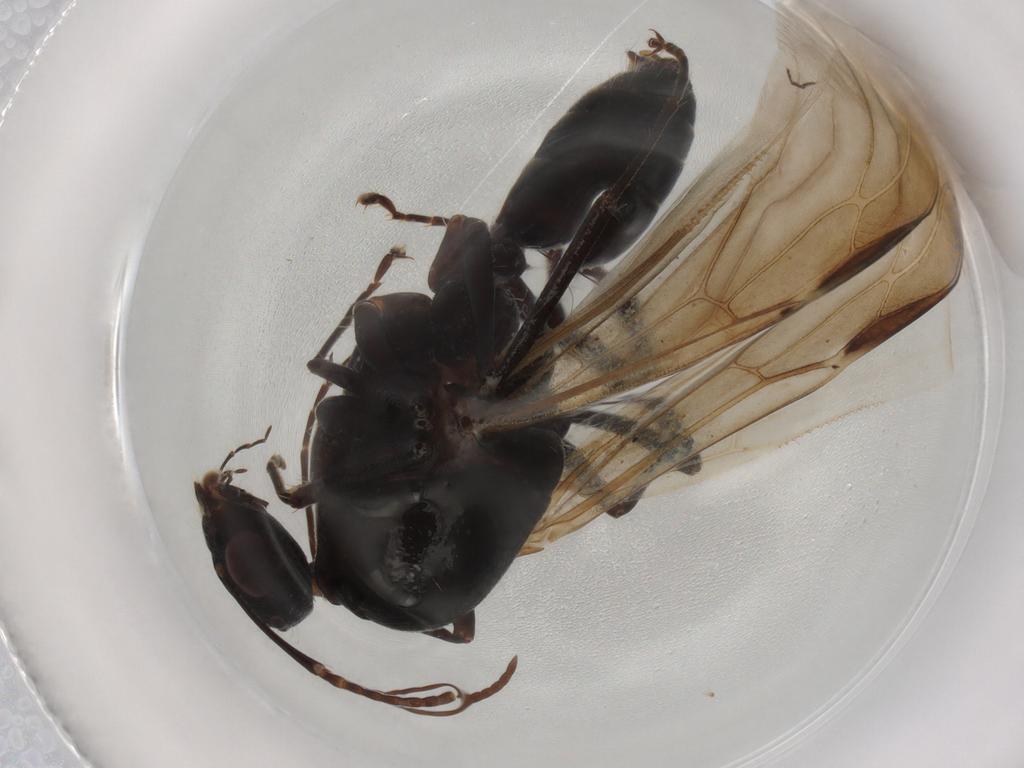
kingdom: Animalia
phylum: Arthropoda
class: Insecta
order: Hymenoptera
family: Formicidae
